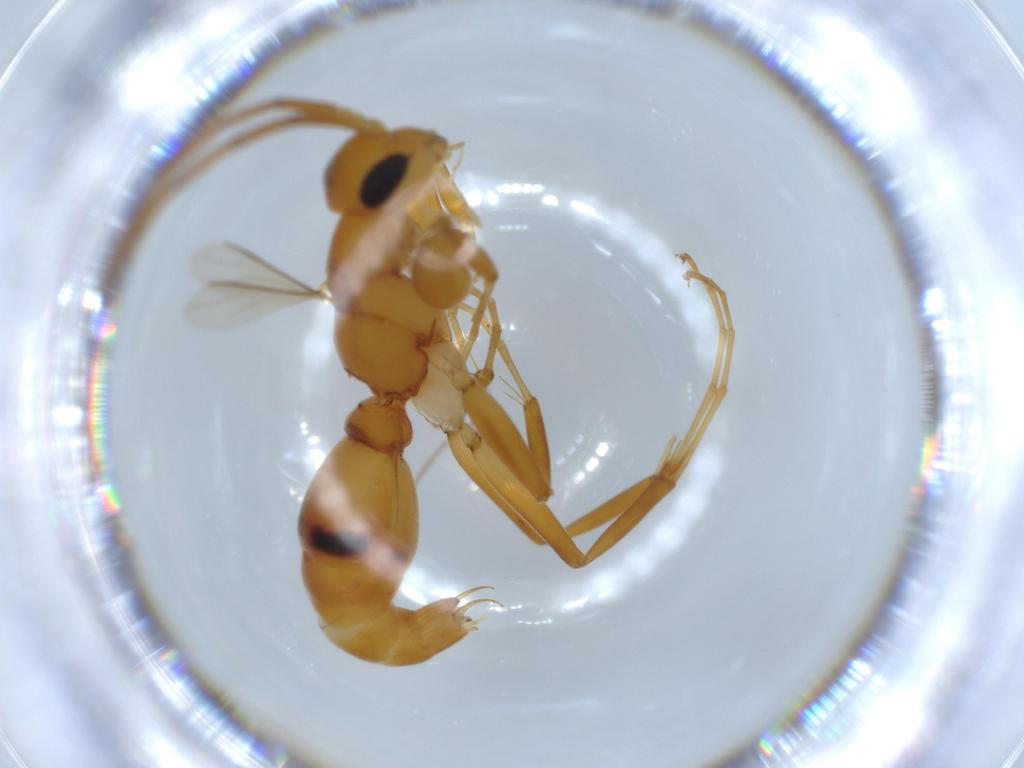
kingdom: Animalia
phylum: Arthropoda
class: Insecta
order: Hymenoptera
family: Rhopalosomatidae
